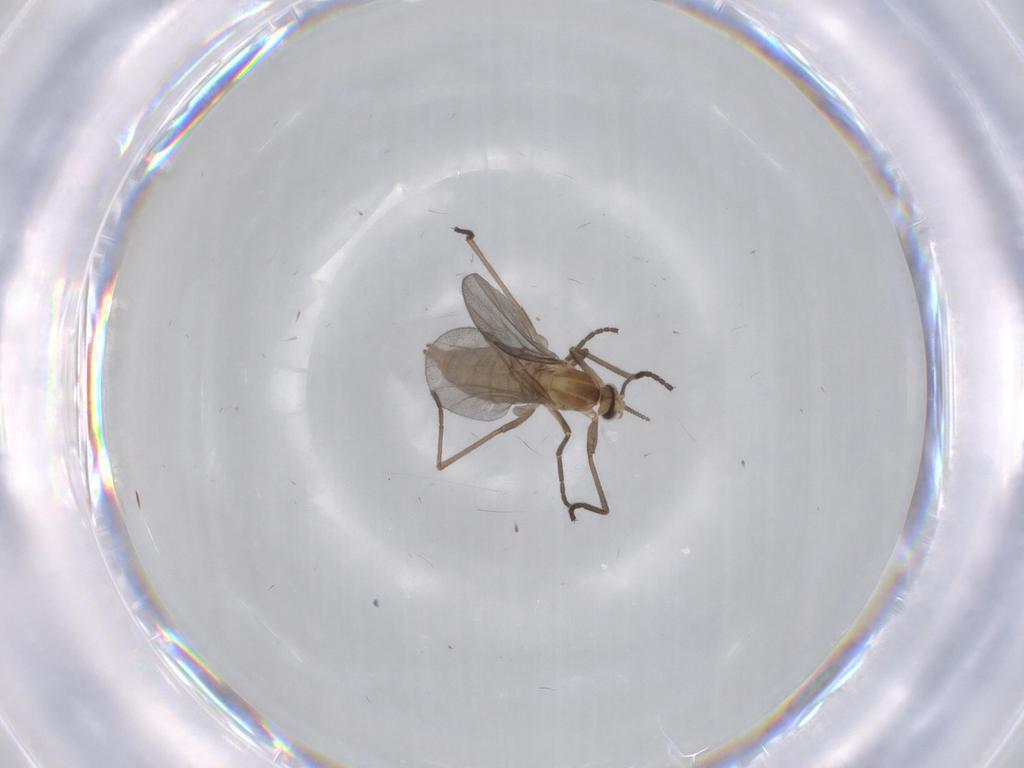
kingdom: Animalia
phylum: Arthropoda
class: Insecta
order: Diptera
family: Cecidomyiidae
